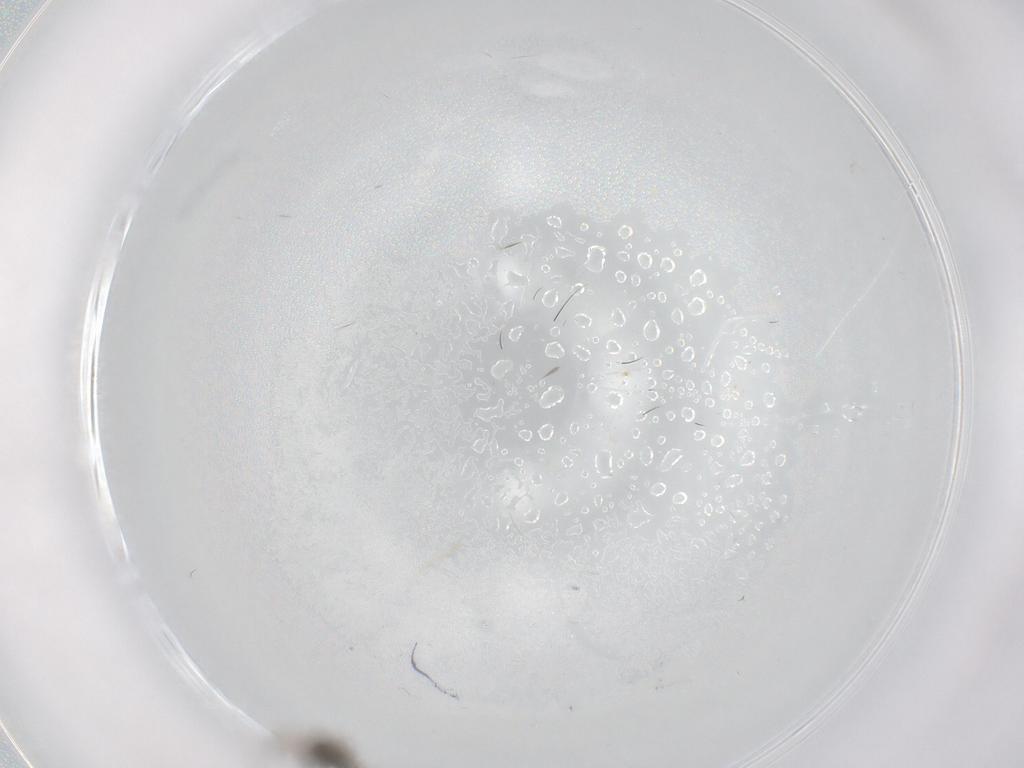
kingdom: Animalia
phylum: Arthropoda
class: Insecta
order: Diptera
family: Cecidomyiidae
